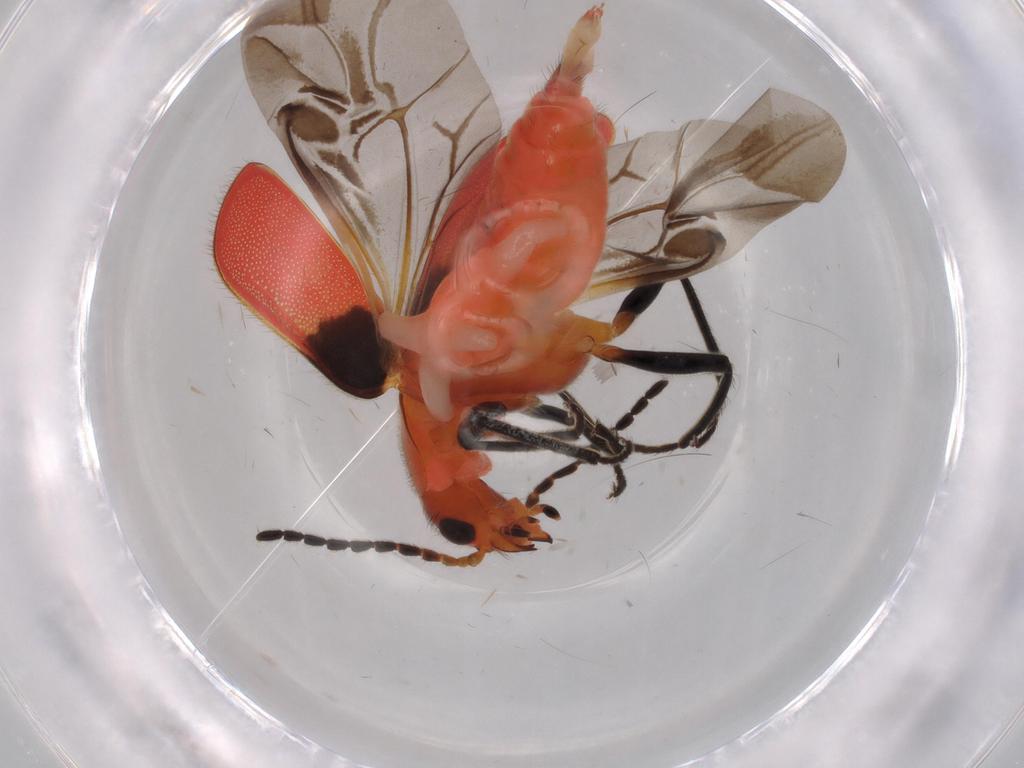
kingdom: Animalia
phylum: Arthropoda
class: Insecta
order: Coleoptera
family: Melyridae
